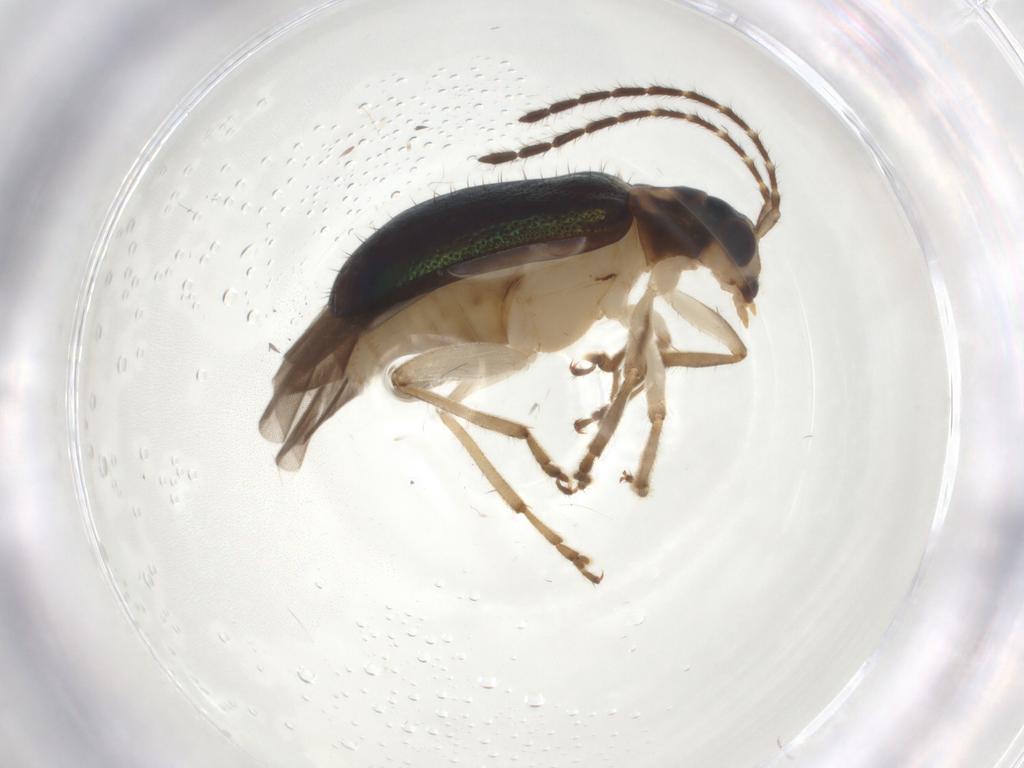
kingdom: Animalia
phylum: Arthropoda
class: Insecta
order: Coleoptera
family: Chrysomelidae
